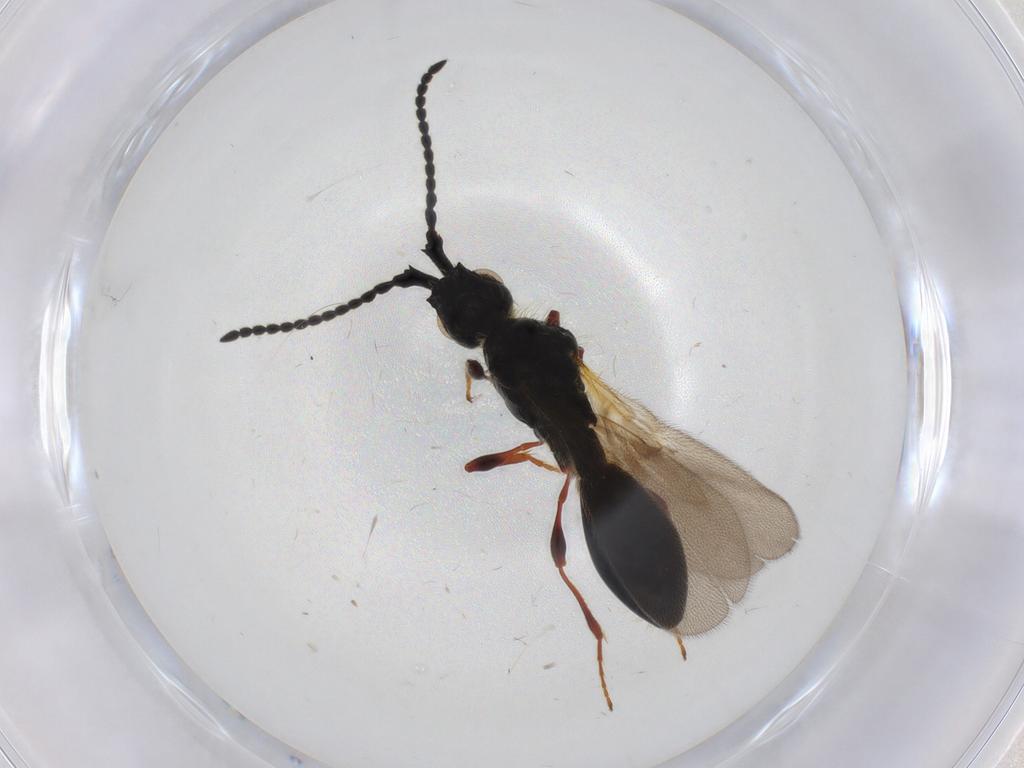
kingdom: Animalia
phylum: Arthropoda
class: Insecta
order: Hymenoptera
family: Diapriidae
